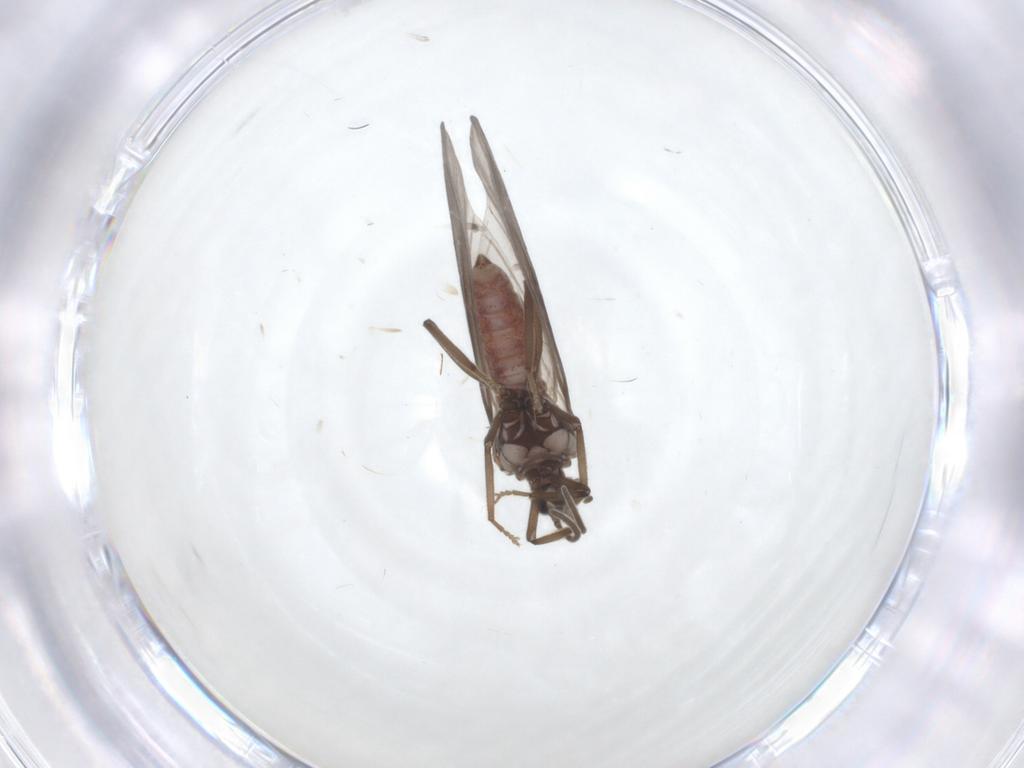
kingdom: Animalia
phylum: Arthropoda
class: Insecta
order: Neuroptera
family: Coniopterygidae
